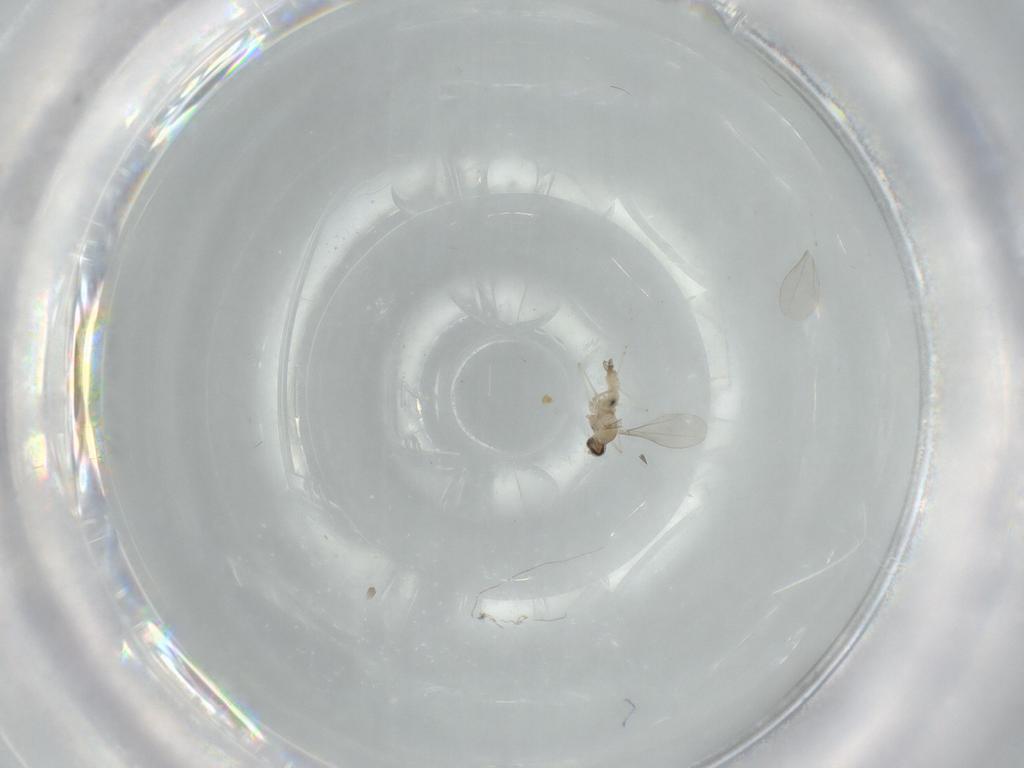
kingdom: Animalia
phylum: Arthropoda
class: Insecta
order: Diptera
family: Cecidomyiidae
